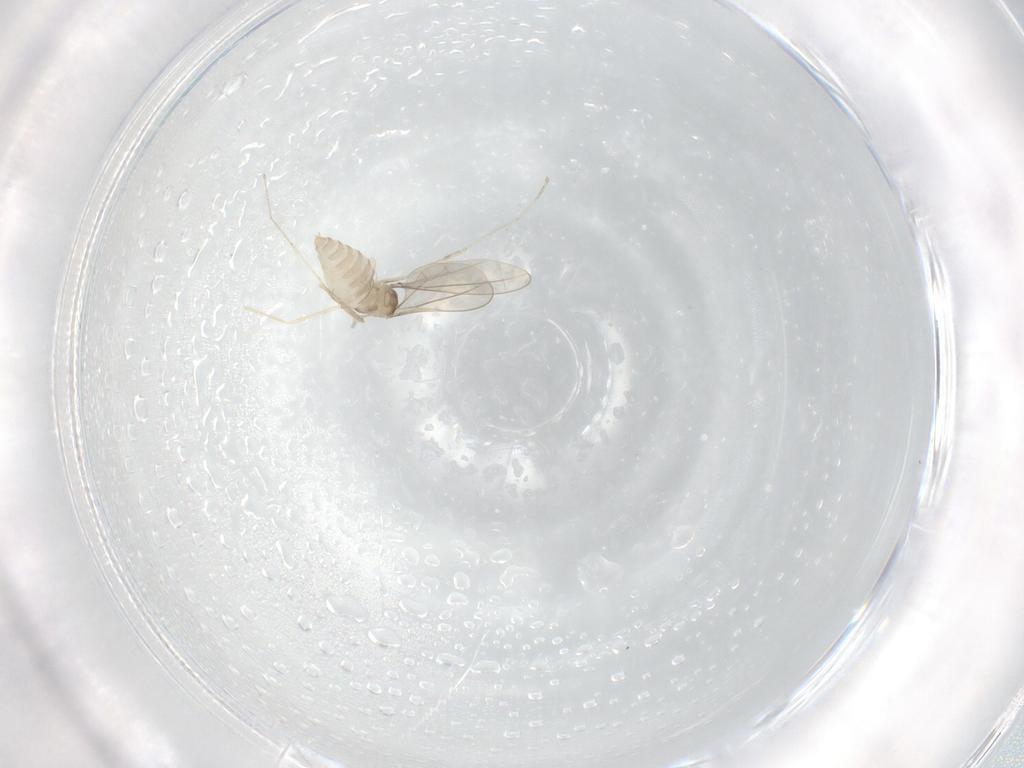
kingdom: Animalia
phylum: Arthropoda
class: Insecta
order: Diptera
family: Cecidomyiidae
